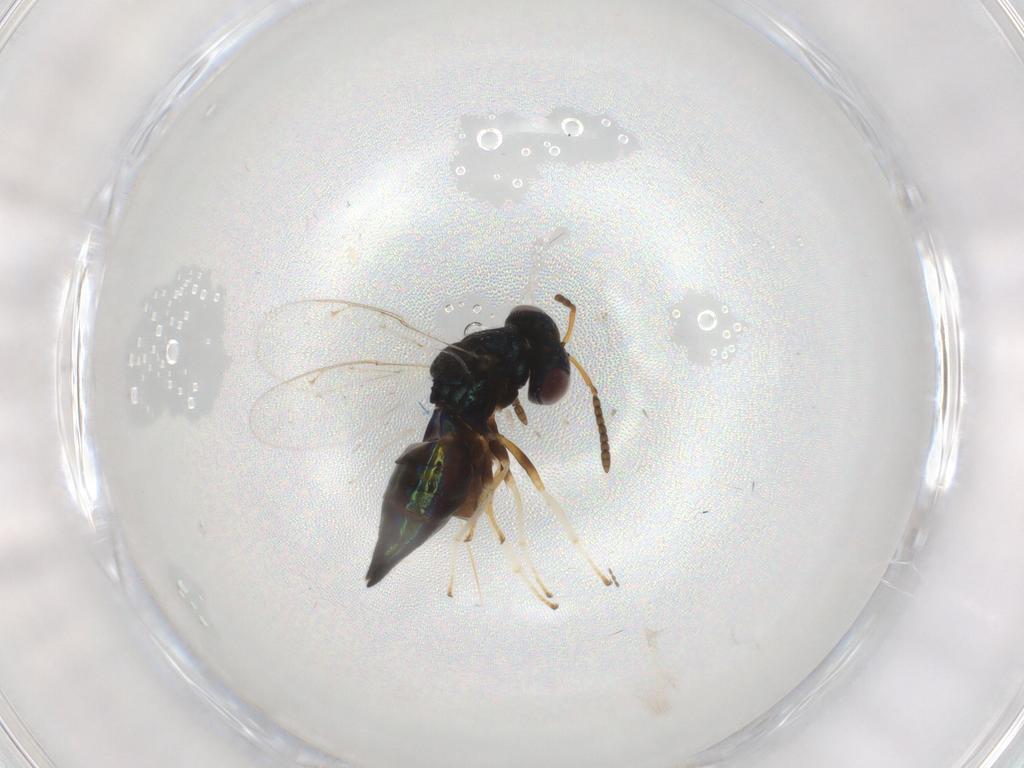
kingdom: Animalia
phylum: Arthropoda
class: Insecta
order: Hymenoptera
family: Pteromalidae
